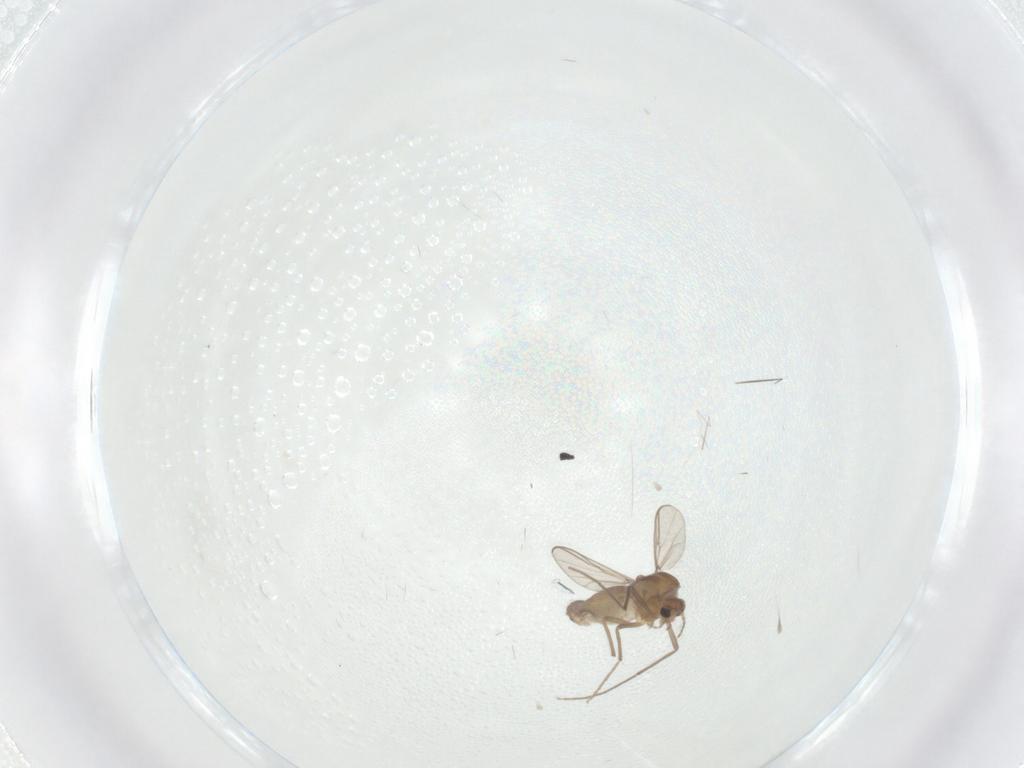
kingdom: Animalia
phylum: Arthropoda
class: Insecta
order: Diptera
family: Chironomidae
